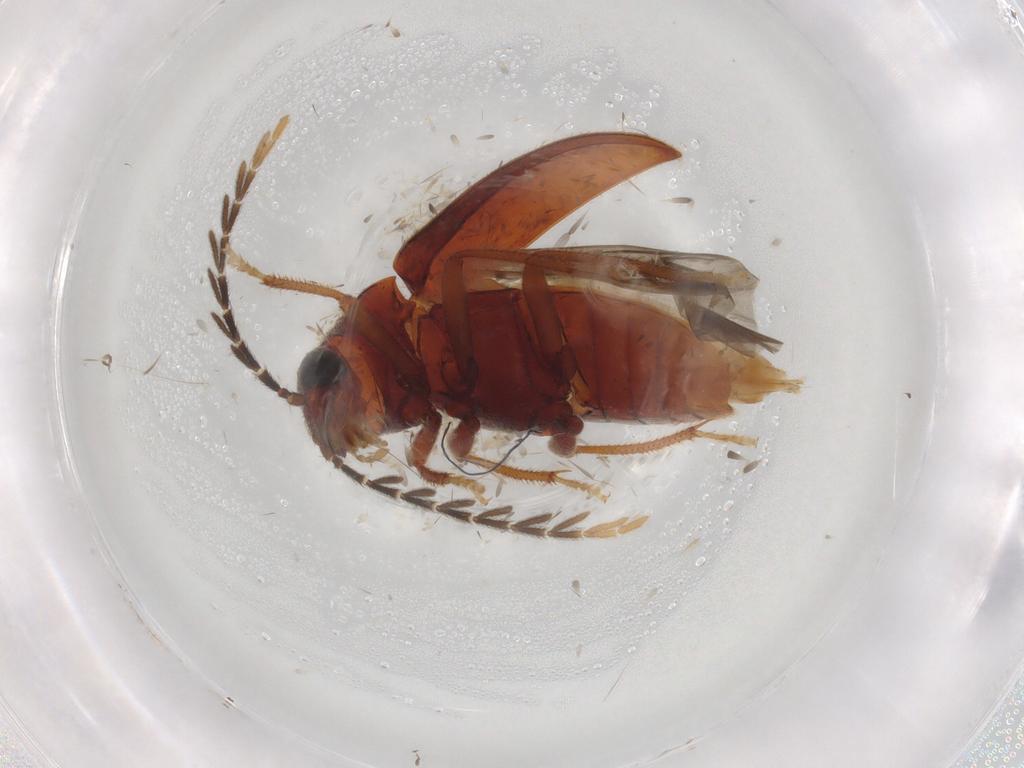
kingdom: Animalia
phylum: Arthropoda
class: Insecta
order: Coleoptera
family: Ptilodactylidae
